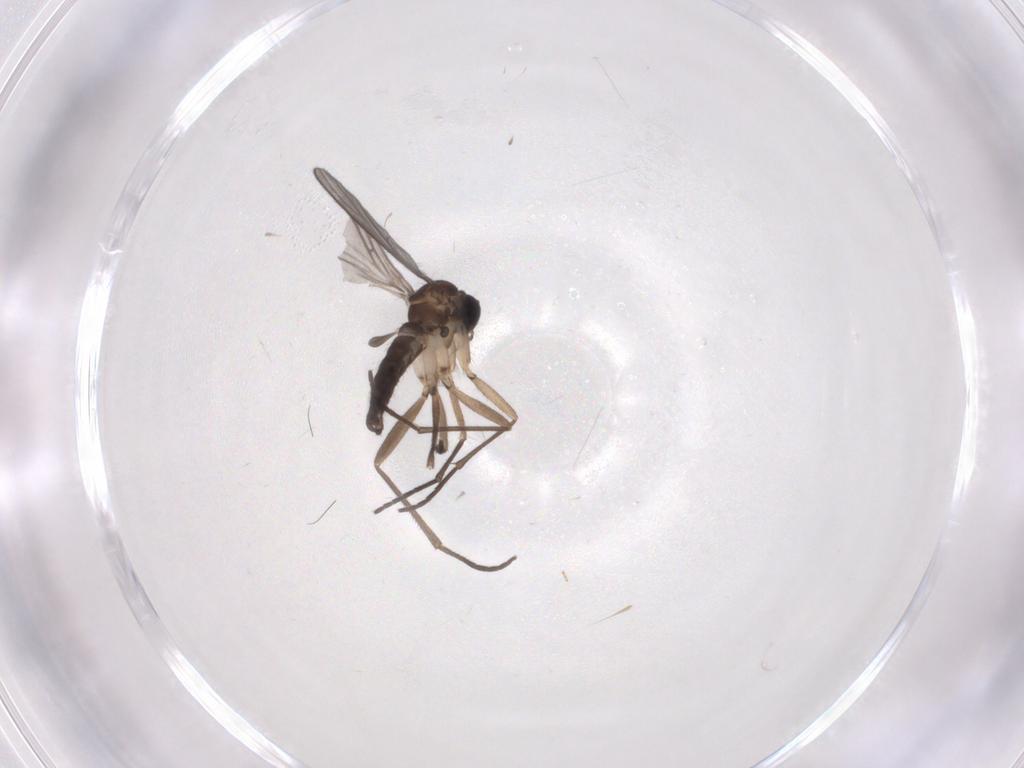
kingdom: Animalia
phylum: Arthropoda
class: Insecta
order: Diptera
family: Sciaridae
